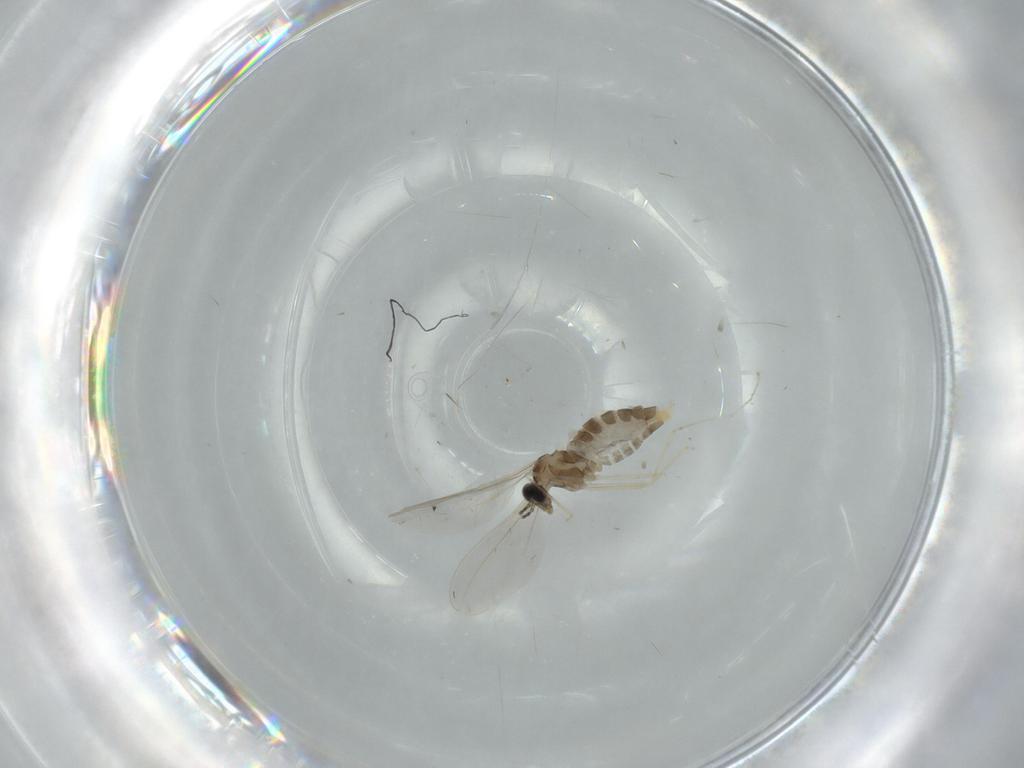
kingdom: Animalia
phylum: Arthropoda
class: Insecta
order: Diptera
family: Cecidomyiidae
